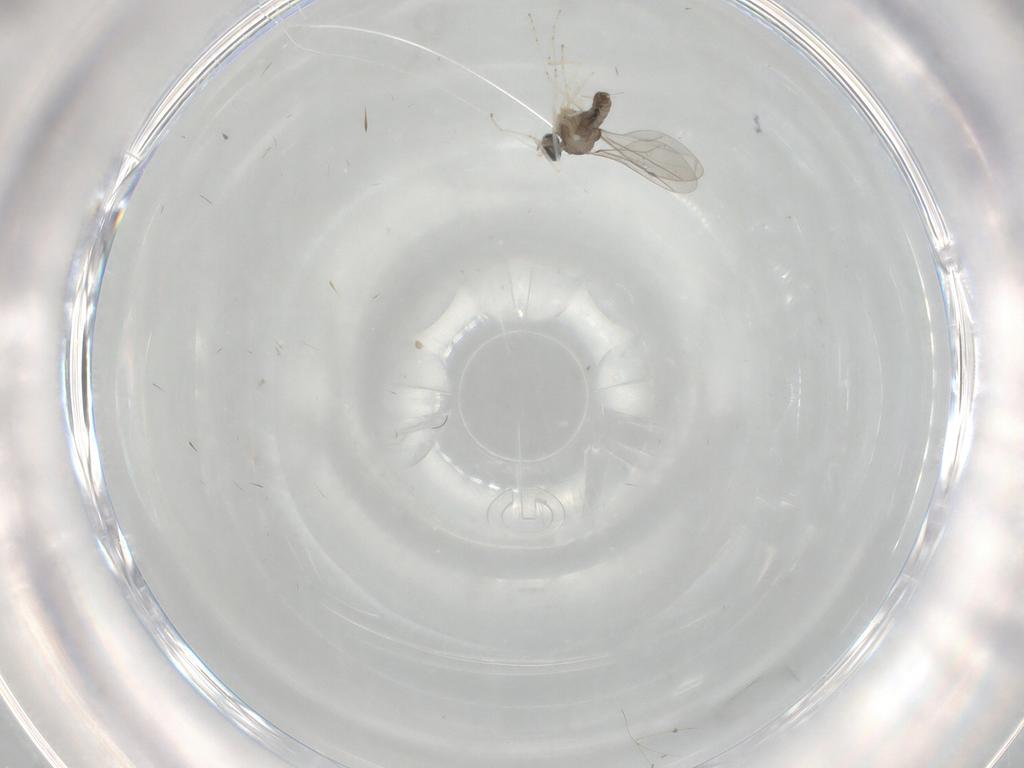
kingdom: Animalia
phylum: Arthropoda
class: Insecta
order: Diptera
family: Cecidomyiidae
